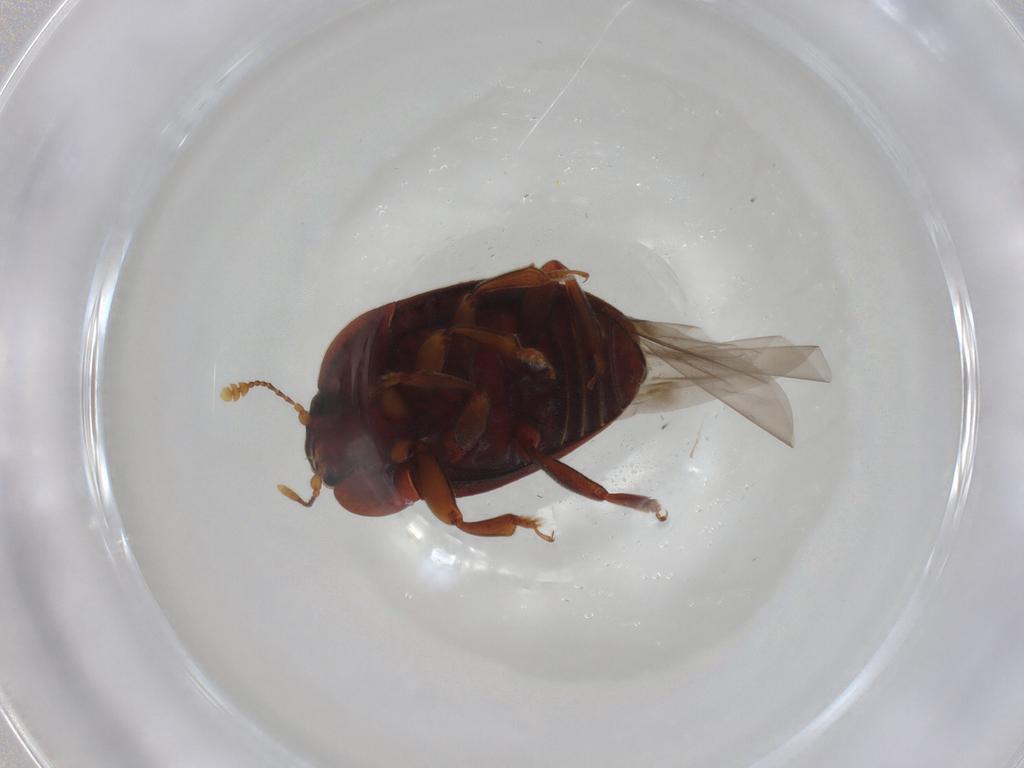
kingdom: Animalia
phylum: Arthropoda
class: Insecta
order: Coleoptera
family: Nitidulidae
